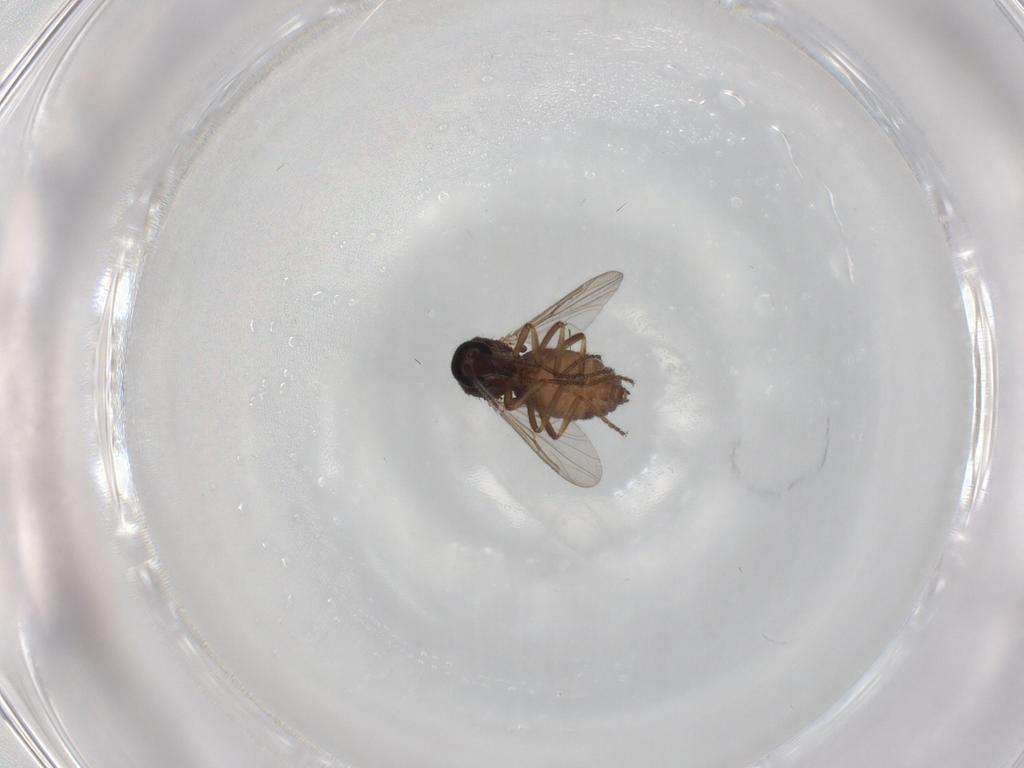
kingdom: Animalia
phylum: Arthropoda
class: Insecta
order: Diptera
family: Ceratopogonidae
